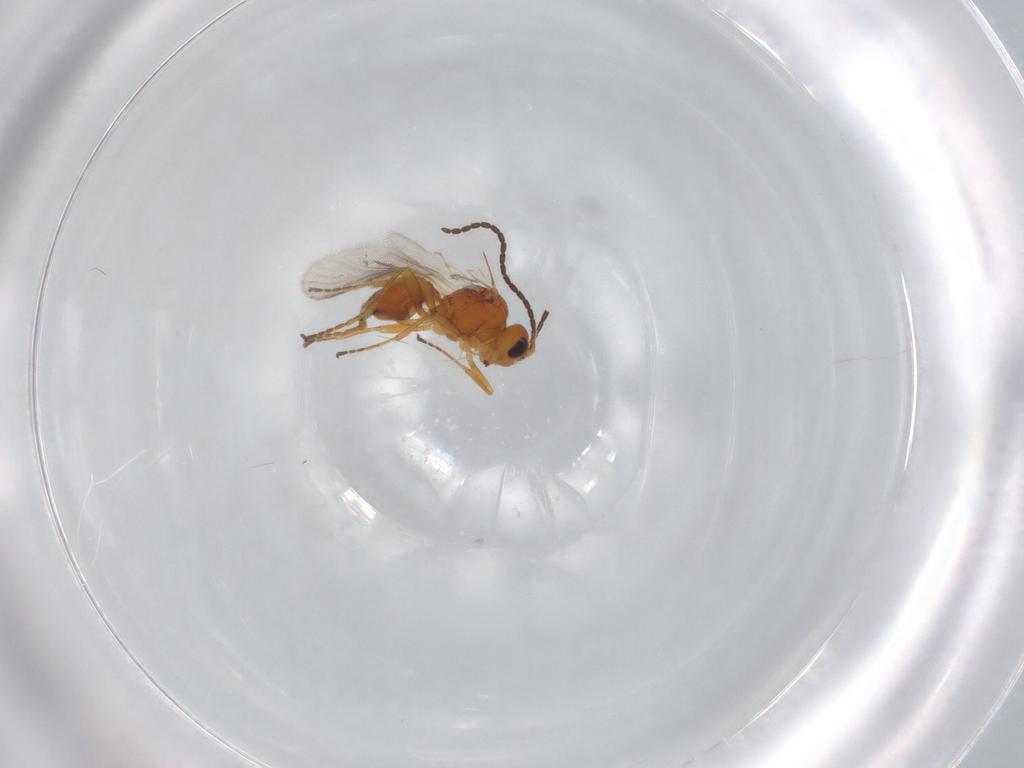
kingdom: Animalia
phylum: Arthropoda
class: Insecta
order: Hymenoptera
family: Braconidae
